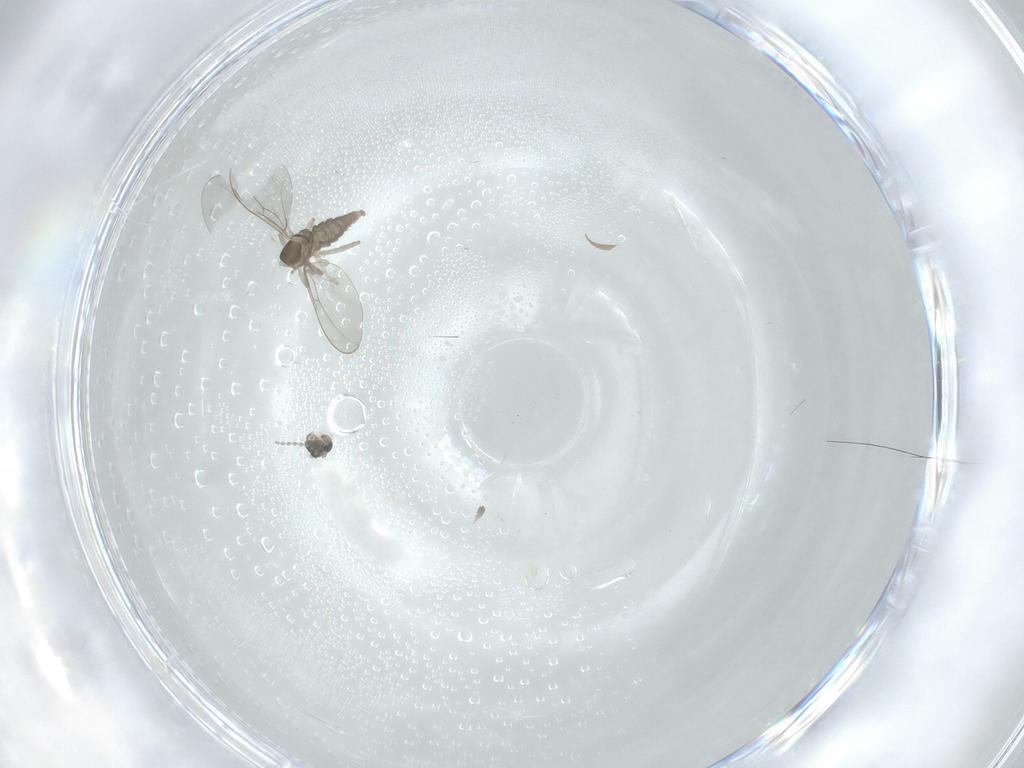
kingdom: Animalia
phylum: Arthropoda
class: Insecta
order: Diptera
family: Cecidomyiidae
